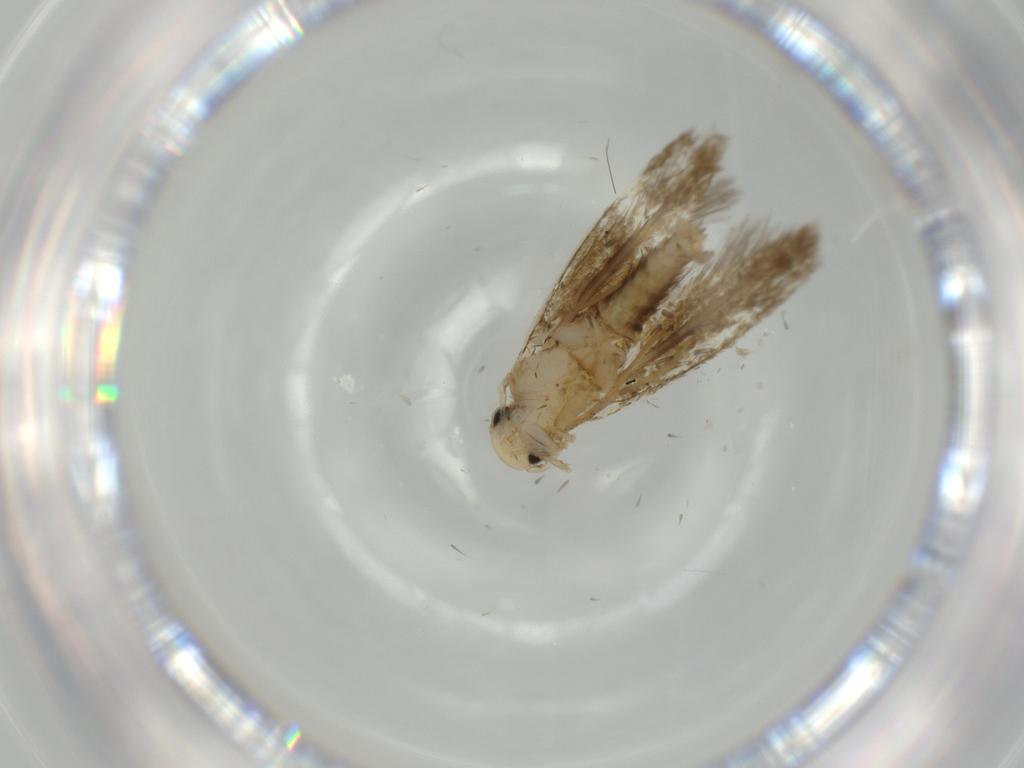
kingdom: Animalia
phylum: Arthropoda
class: Insecta
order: Lepidoptera
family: Tineidae
